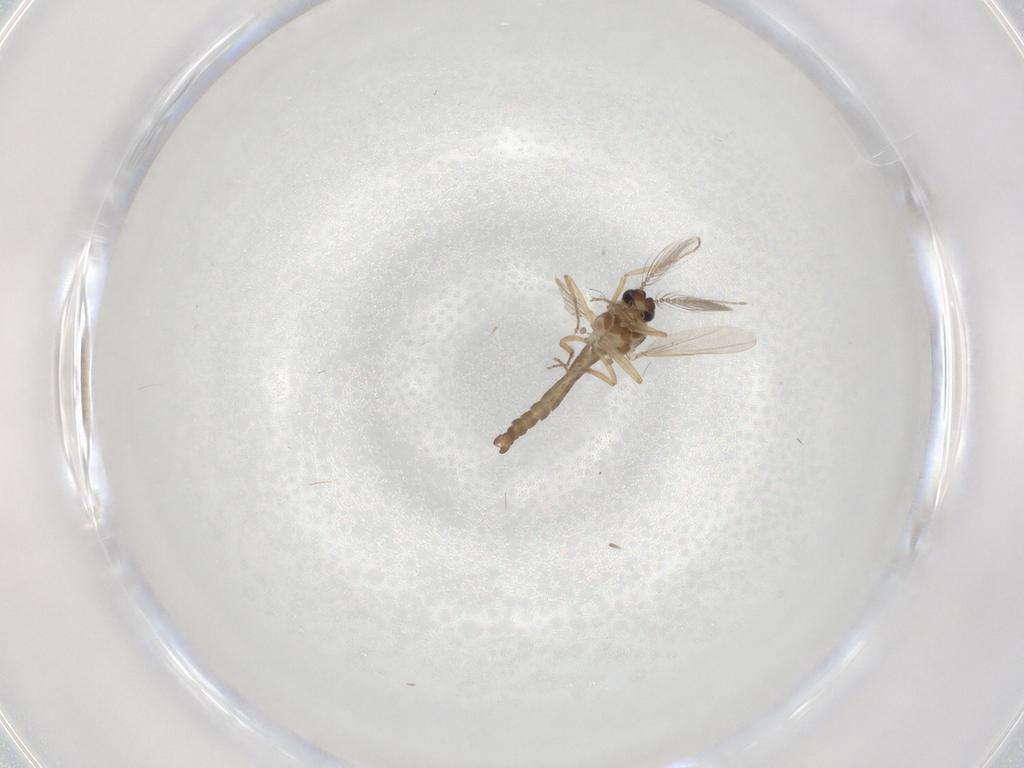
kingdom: Animalia
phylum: Arthropoda
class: Insecta
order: Diptera
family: Ceratopogonidae
